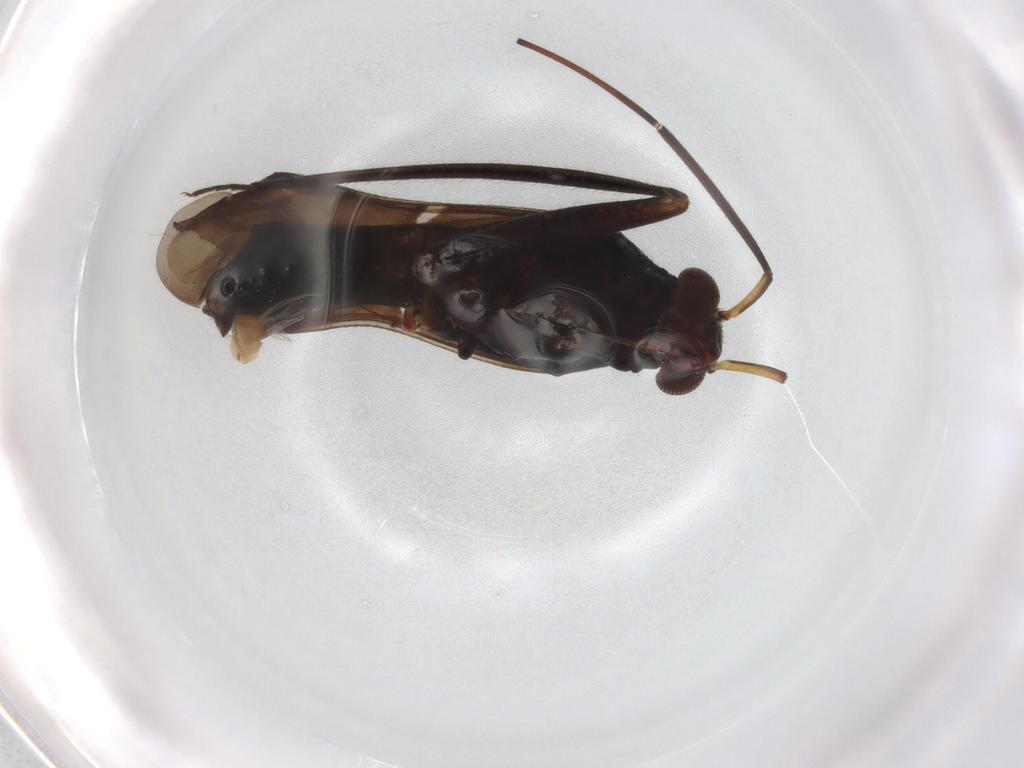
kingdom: Animalia
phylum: Arthropoda
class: Insecta
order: Hemiptera
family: Miridae
